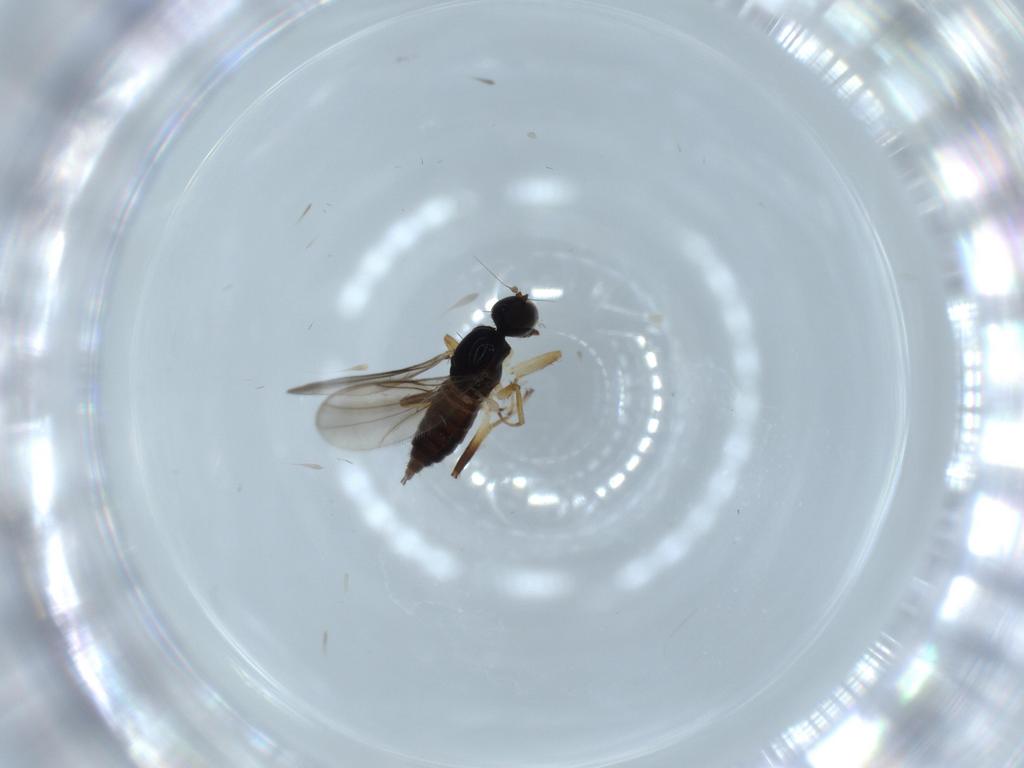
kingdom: Animalia
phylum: Arthropoda
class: Insecta
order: Diptera
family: Hybotidae
